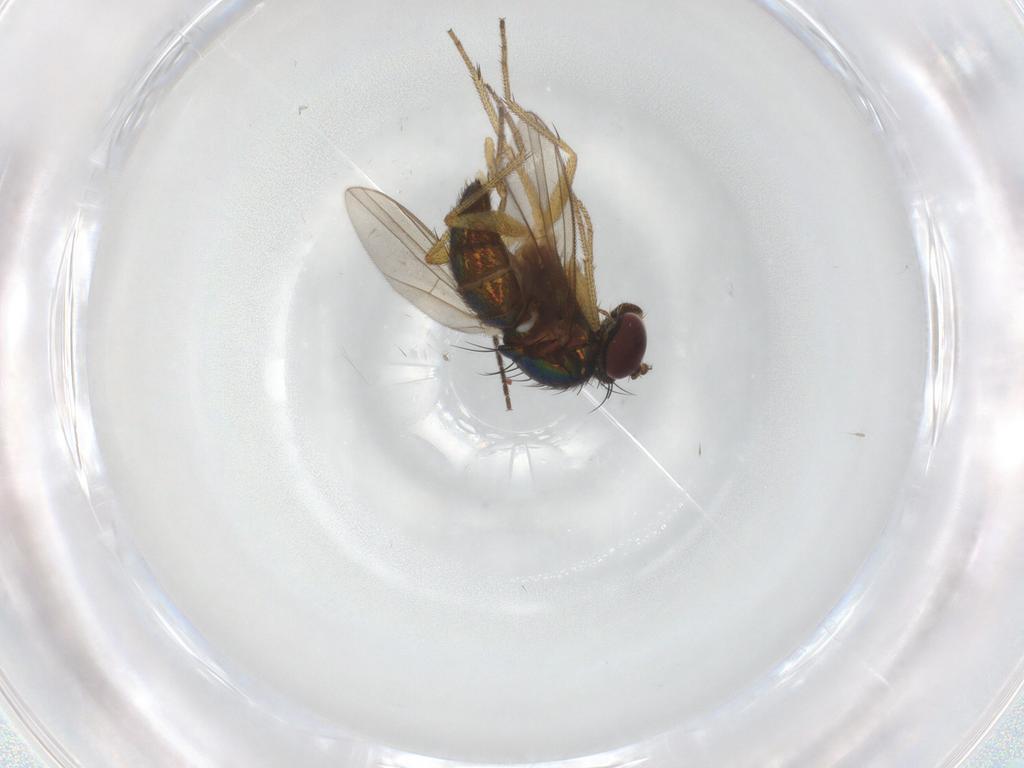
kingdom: Animalia
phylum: Arthropoda
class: Insecta
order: Diptera
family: Sciaridae
